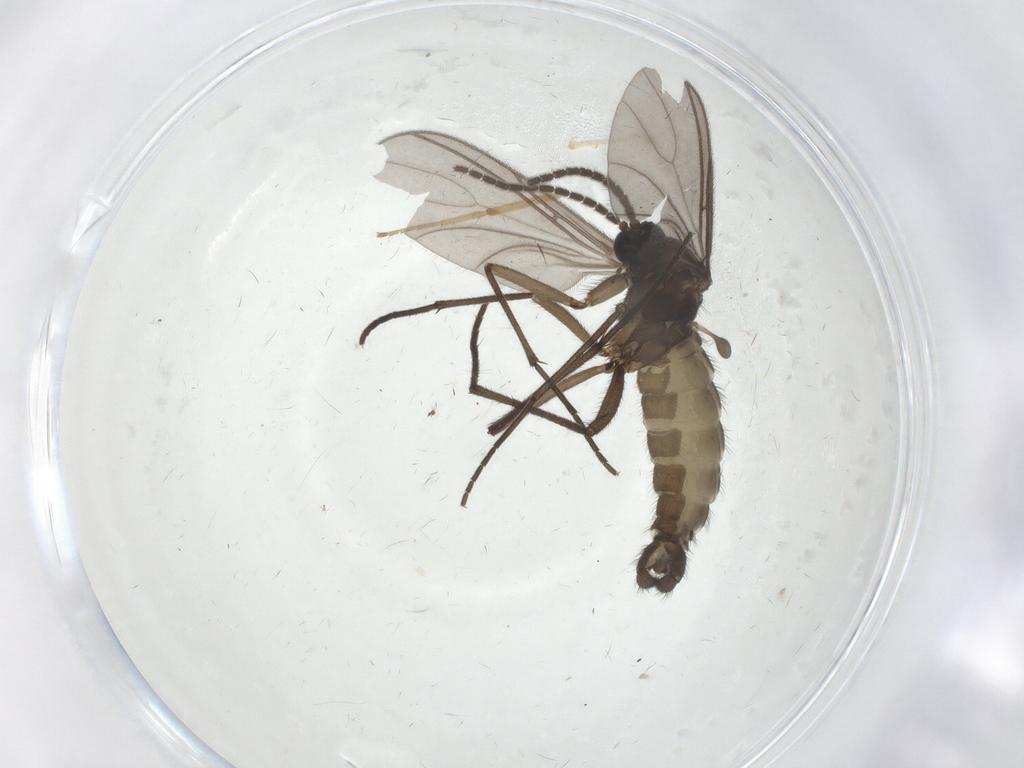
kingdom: Animalia
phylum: Arthropoda
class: Insecta
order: Diptera
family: Sciaridae
